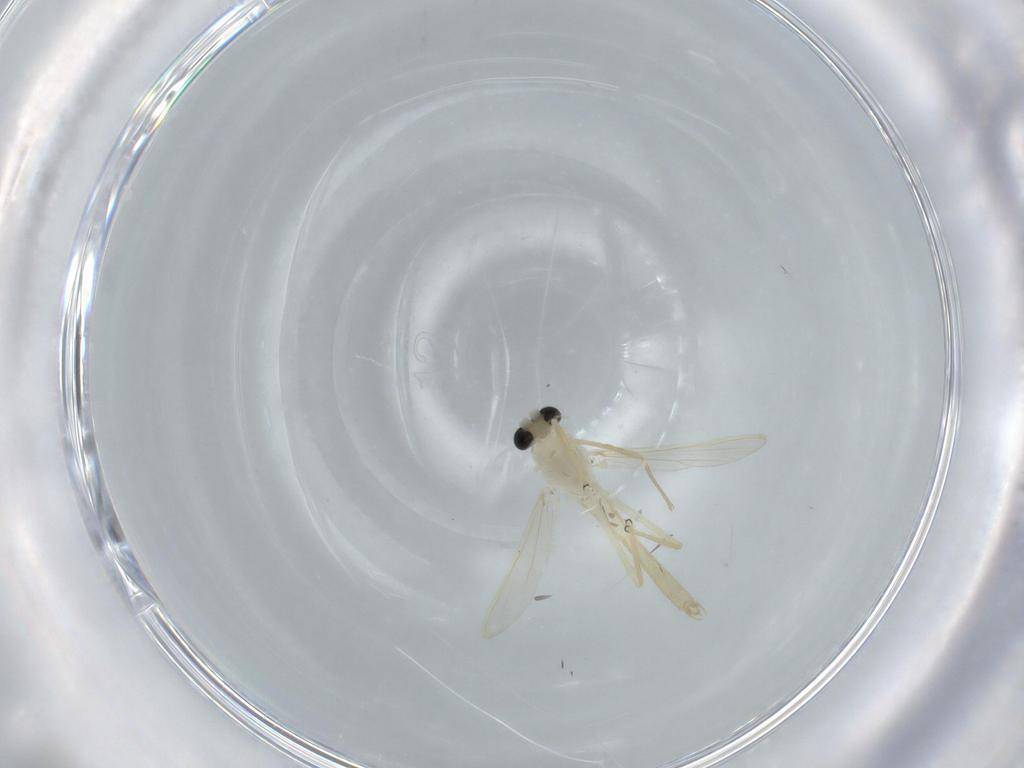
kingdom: Animalia
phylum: Arthropoda
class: Insecta
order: Diptera
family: Chironomidae
